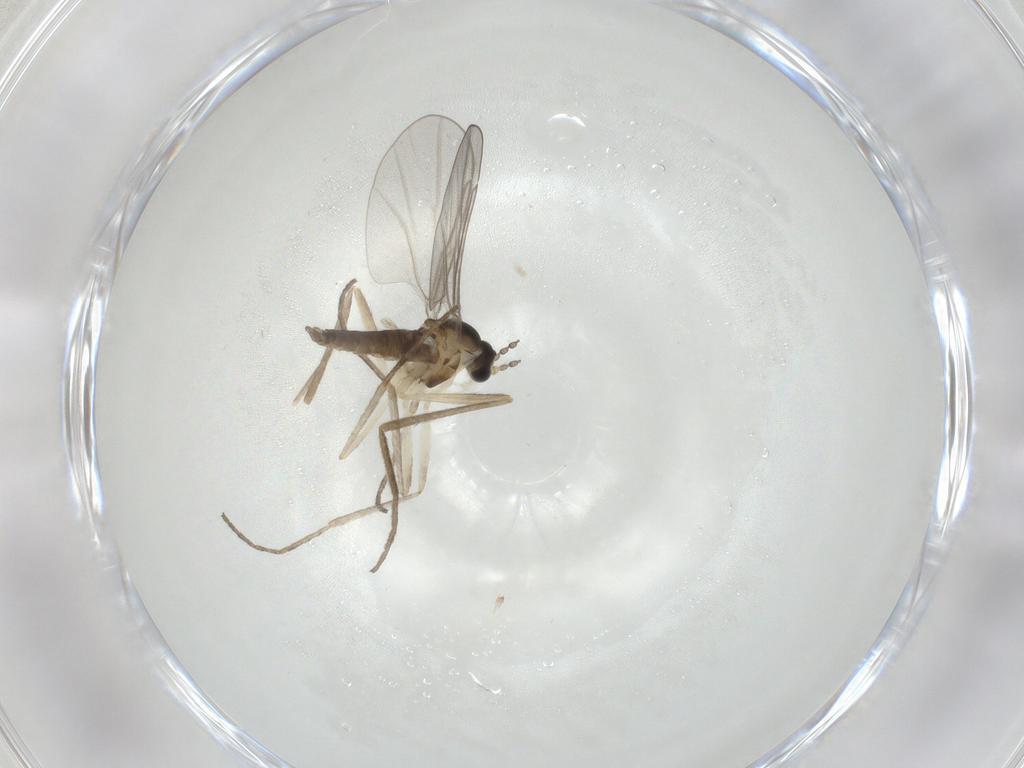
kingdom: Animalia
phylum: Arthropoda
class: Insecta
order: Diptera
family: Cecidomyiidae
